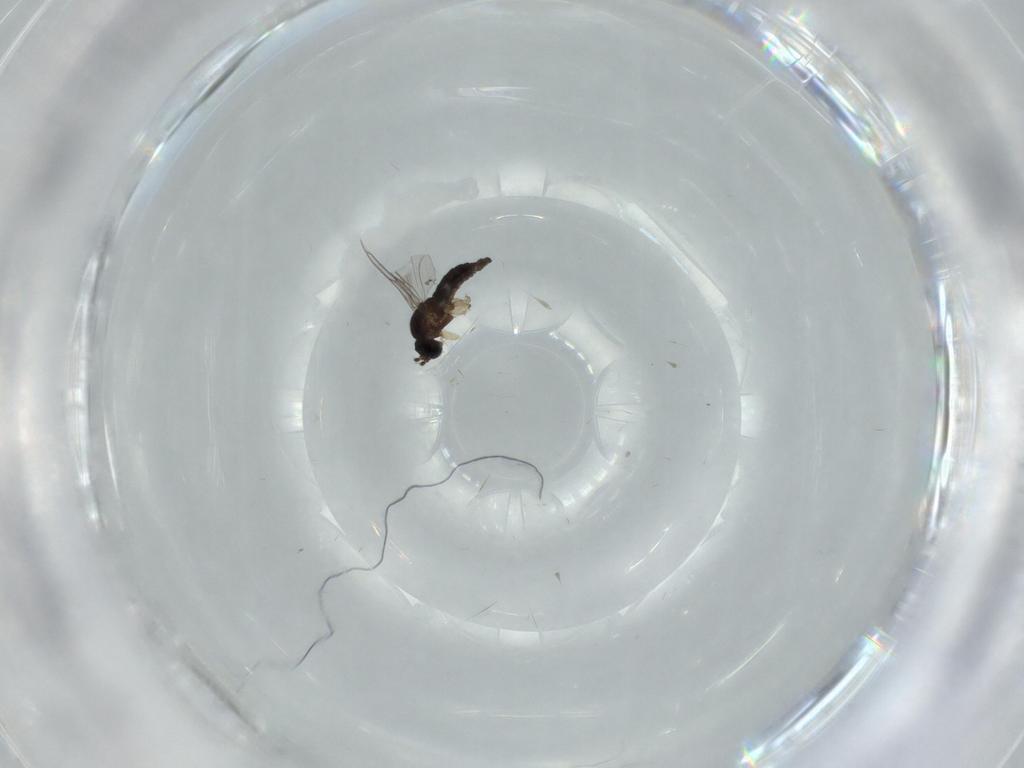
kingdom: Animalia
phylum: Arthropoda
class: Insecta
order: Diptera
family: Sciaridae
